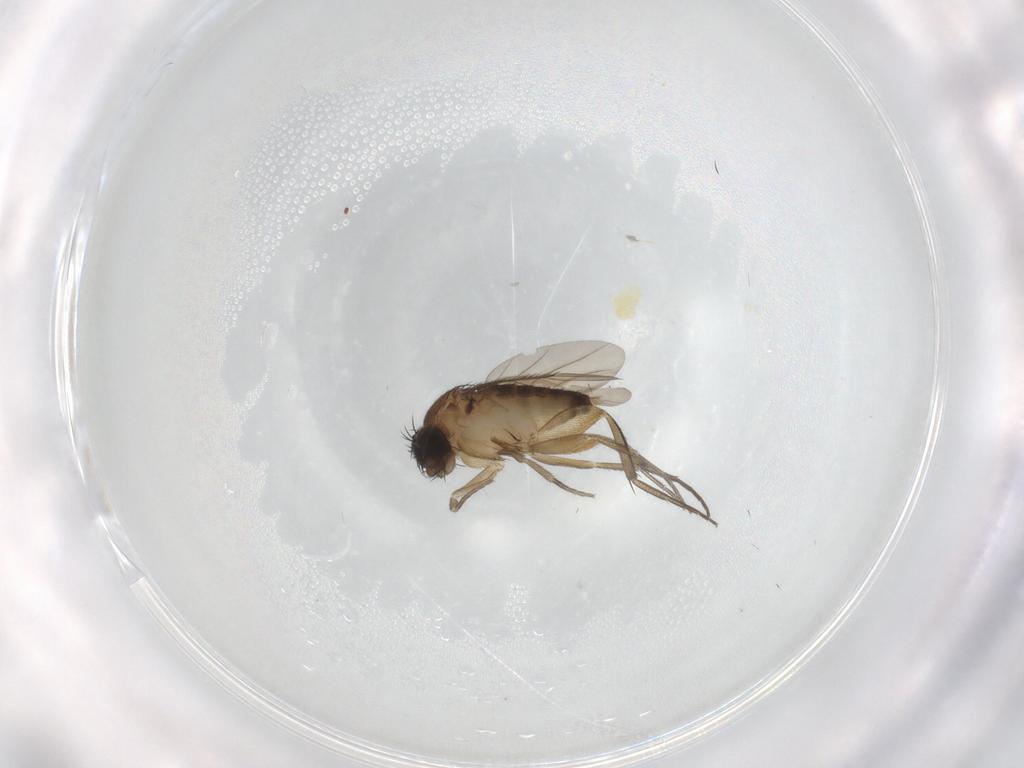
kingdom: Animalia
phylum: Arthropoda
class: Insecta
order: Diptera
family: Phoridae
